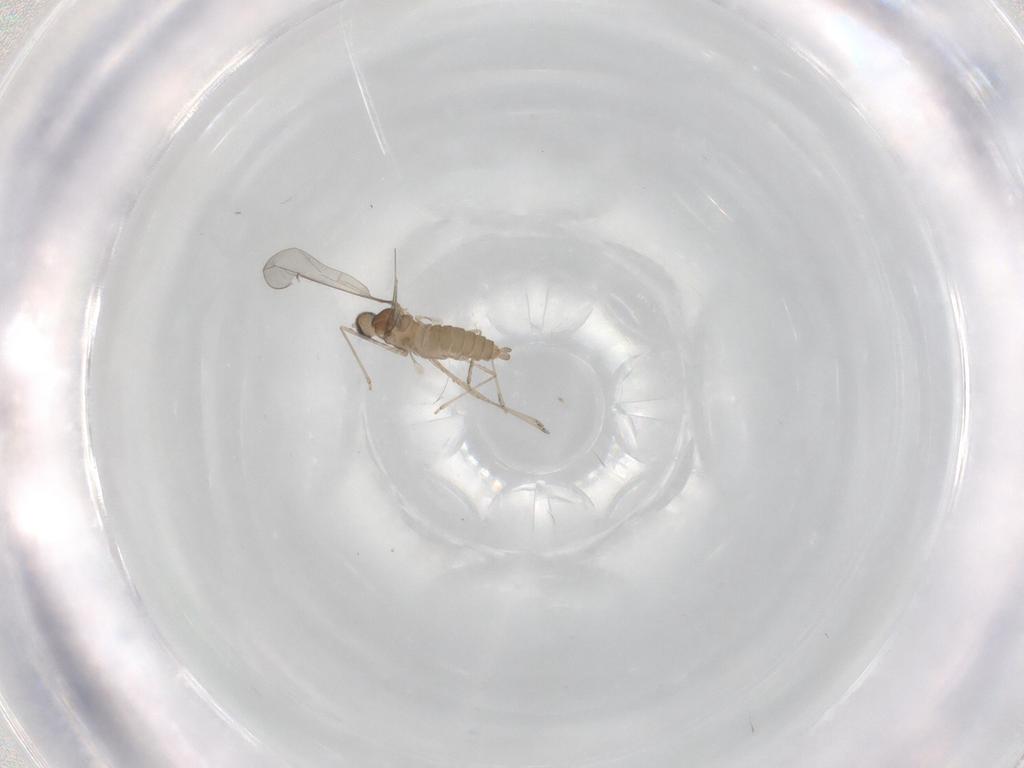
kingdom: Animalia
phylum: Arthropoda
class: Insecta
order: Diptera
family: Cecidomyiidae
